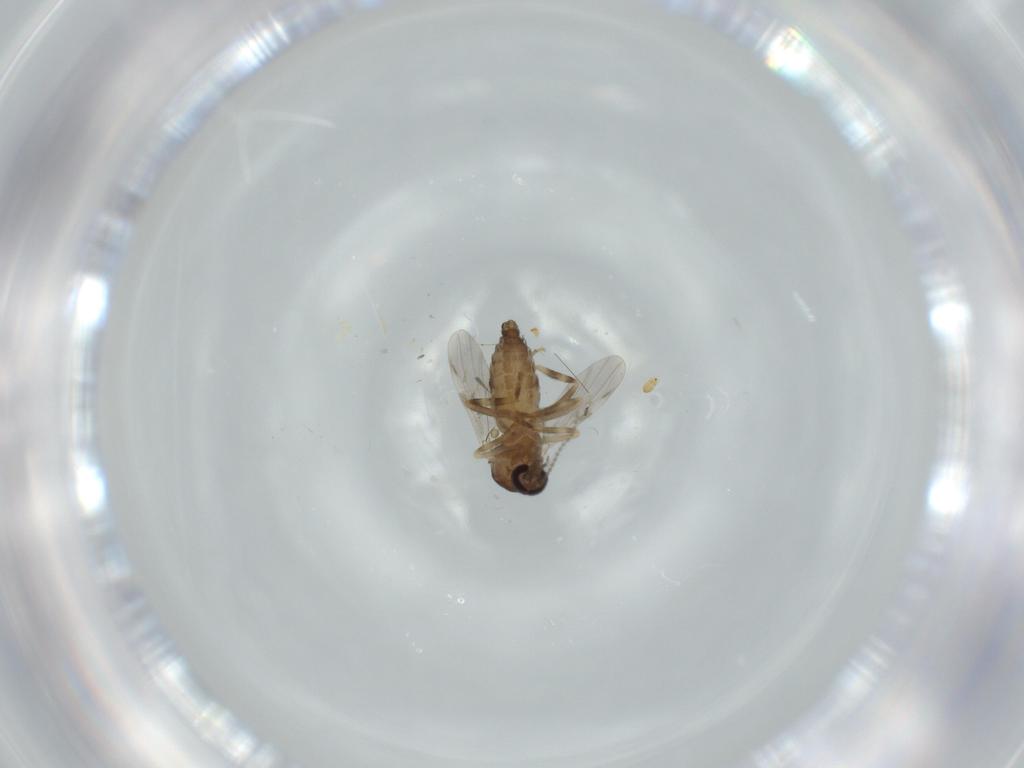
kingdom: Animalia
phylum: Arthropoda
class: Insecta
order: Diptera
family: Ceratopogonidae
